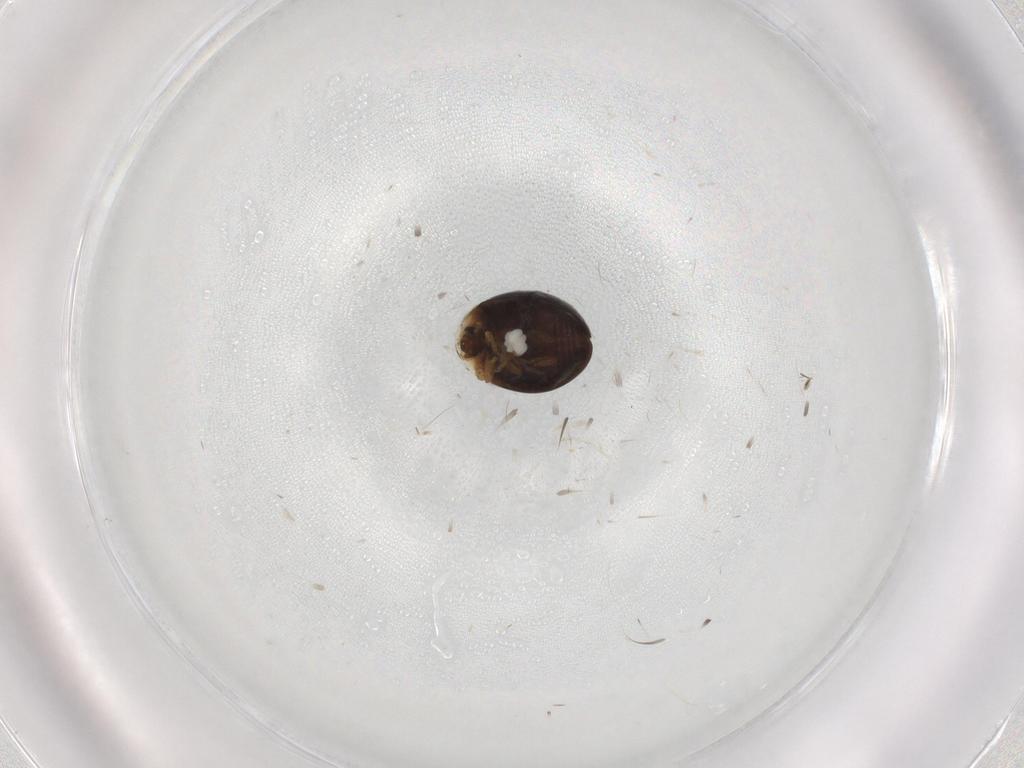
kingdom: Animalia
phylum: Arthropoda
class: Insecta
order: Coleoptera
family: Corylophidae
